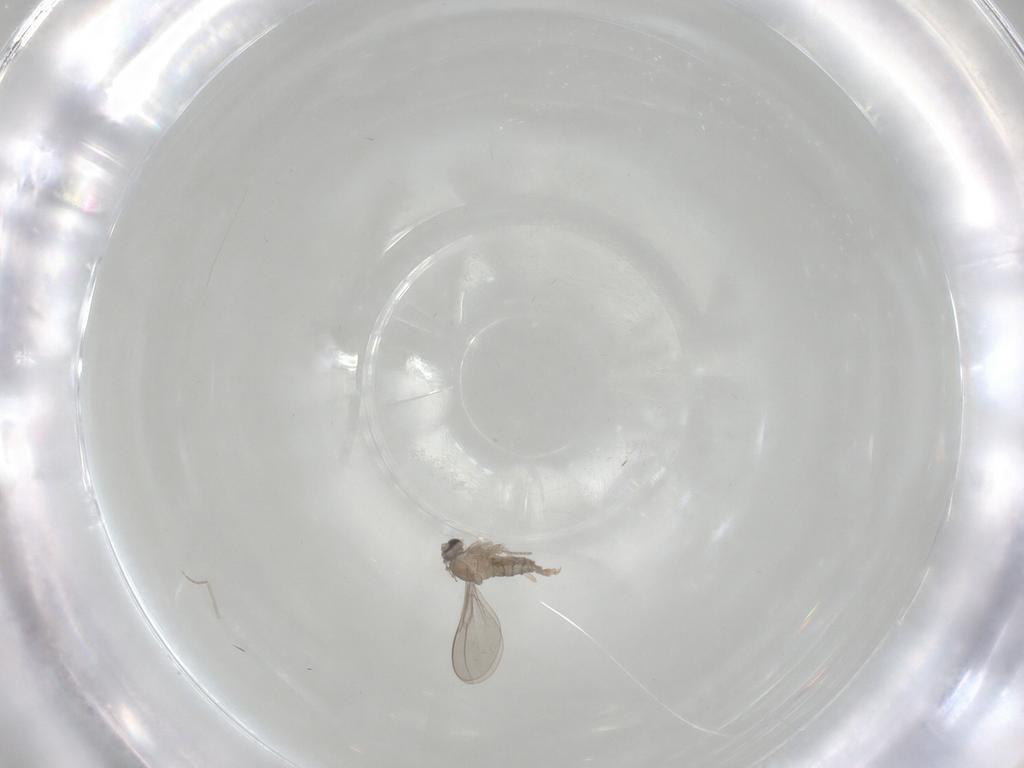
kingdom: Animalia
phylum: Arthropoda
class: Insecta
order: Diptera
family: Cecidomyiidae
